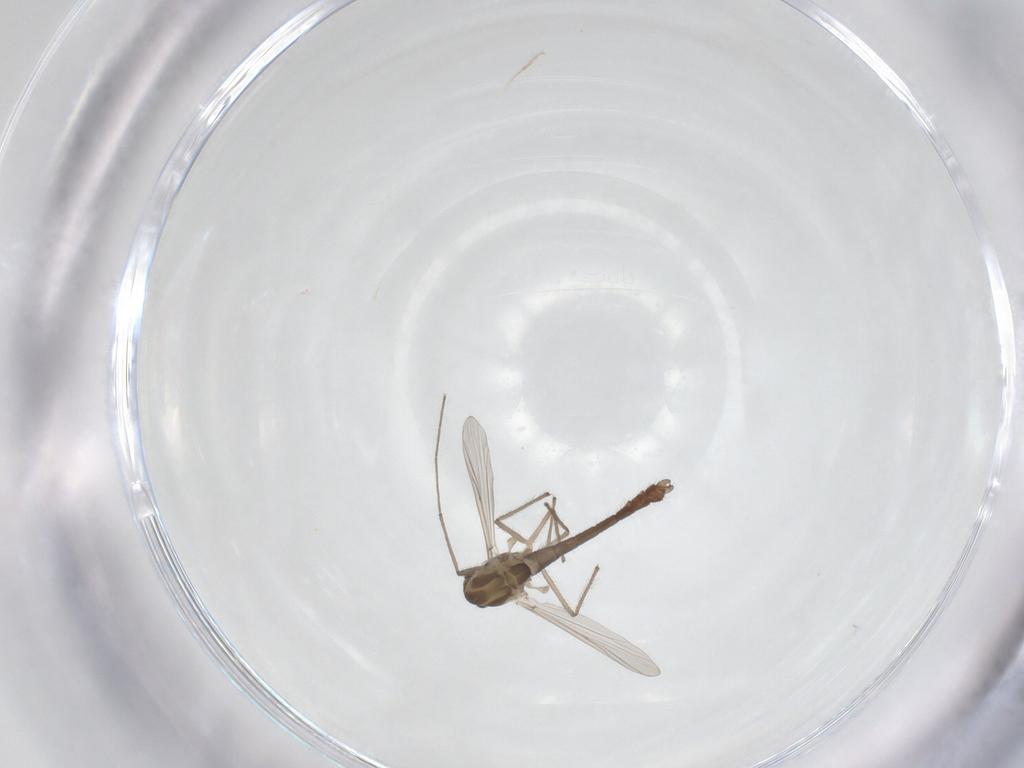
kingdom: Animalia
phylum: Arthropoda
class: Insecta
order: Diptera
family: Chironomidae
